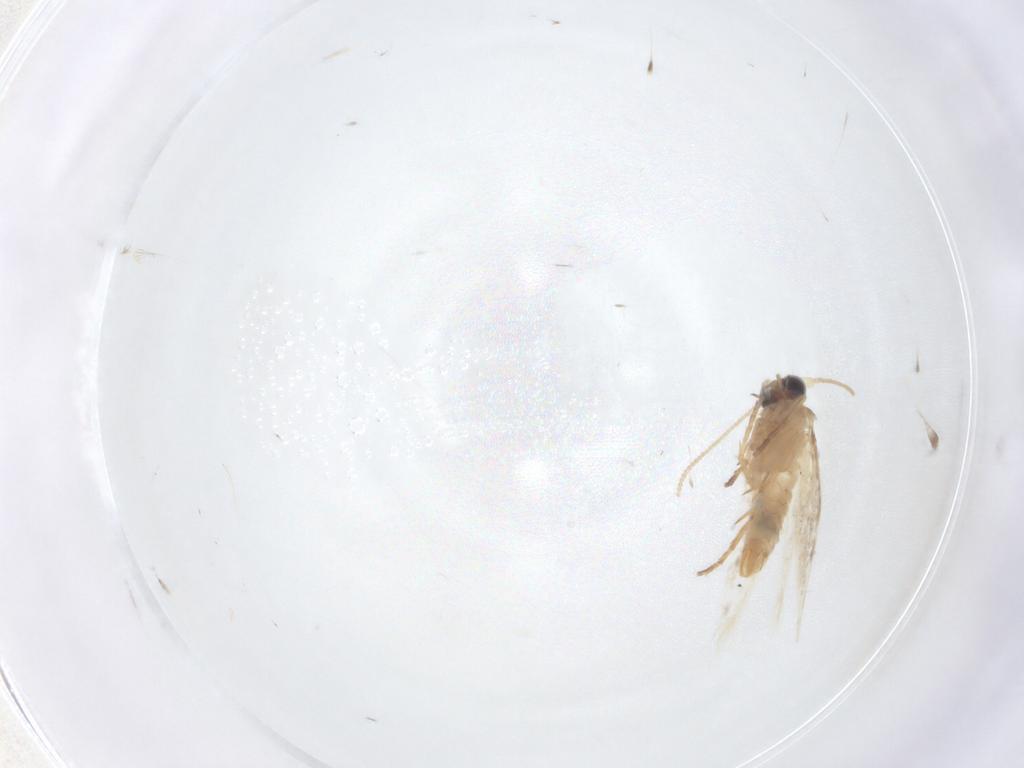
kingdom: Animalia
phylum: Arthropoda
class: Insecta
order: Lepidoptera
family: Nepticulidae
